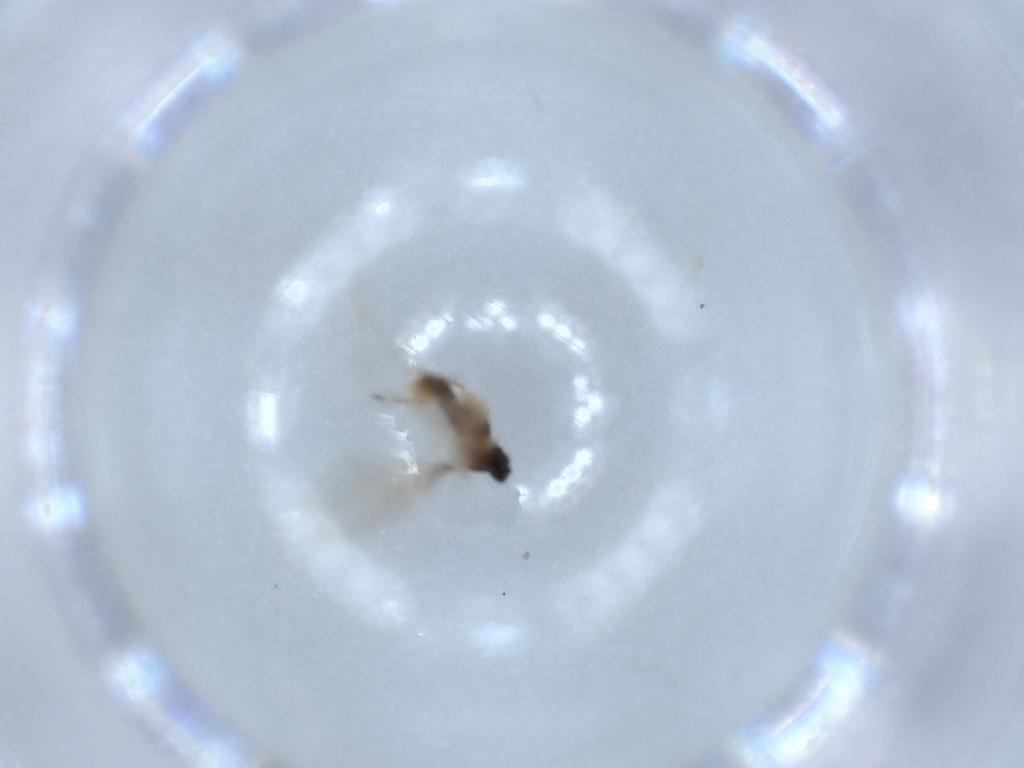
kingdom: Animalia
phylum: Arthropoda
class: Insecta
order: Diptera
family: Cecidomyiidae
